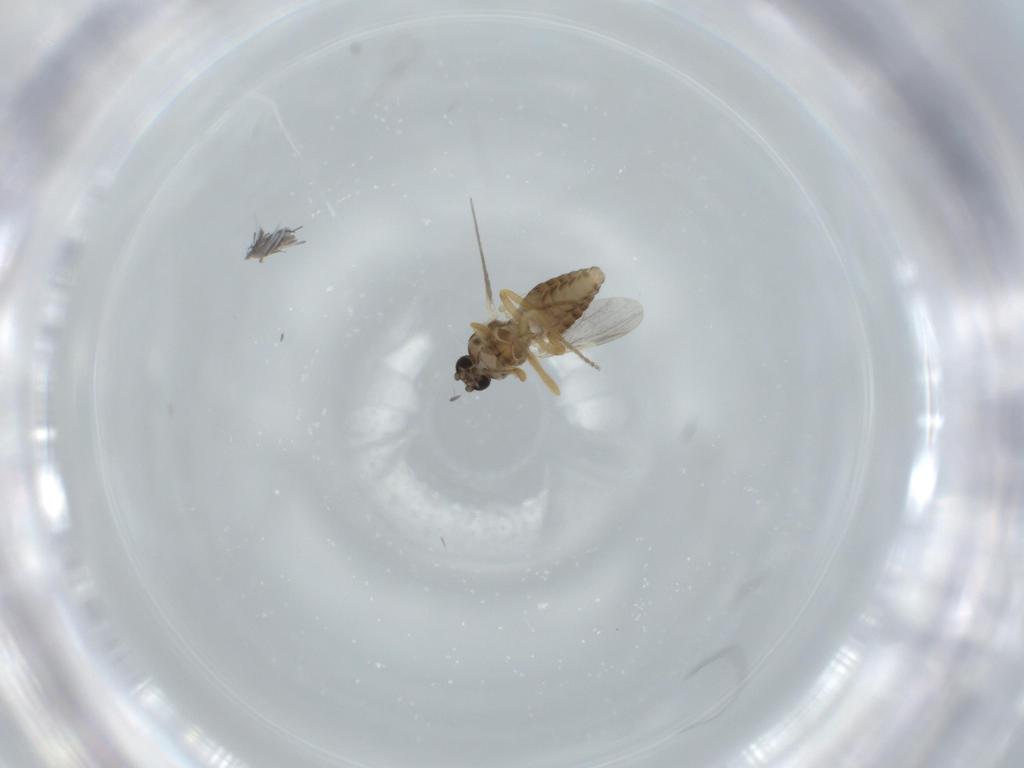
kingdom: Animalia
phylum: Arthropoda
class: Insecta
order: Diptera
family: Ceratopogonidae
